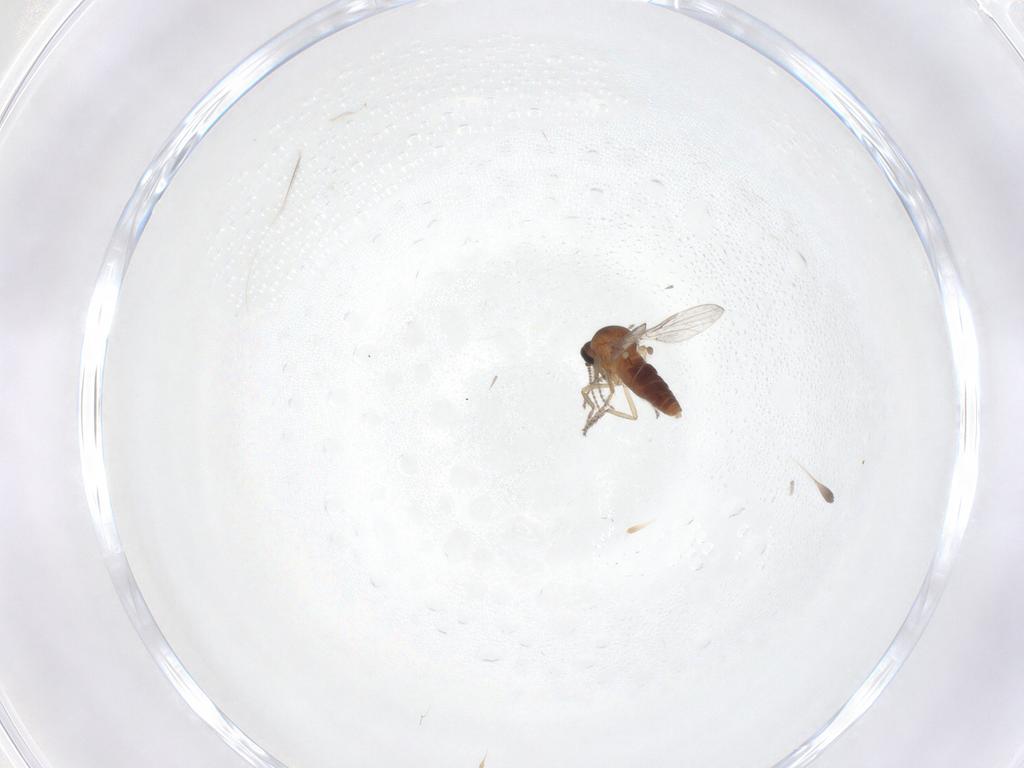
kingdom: Animalia
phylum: Arthropoda
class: Insecta
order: Diptera
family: Ceratopogonidae
